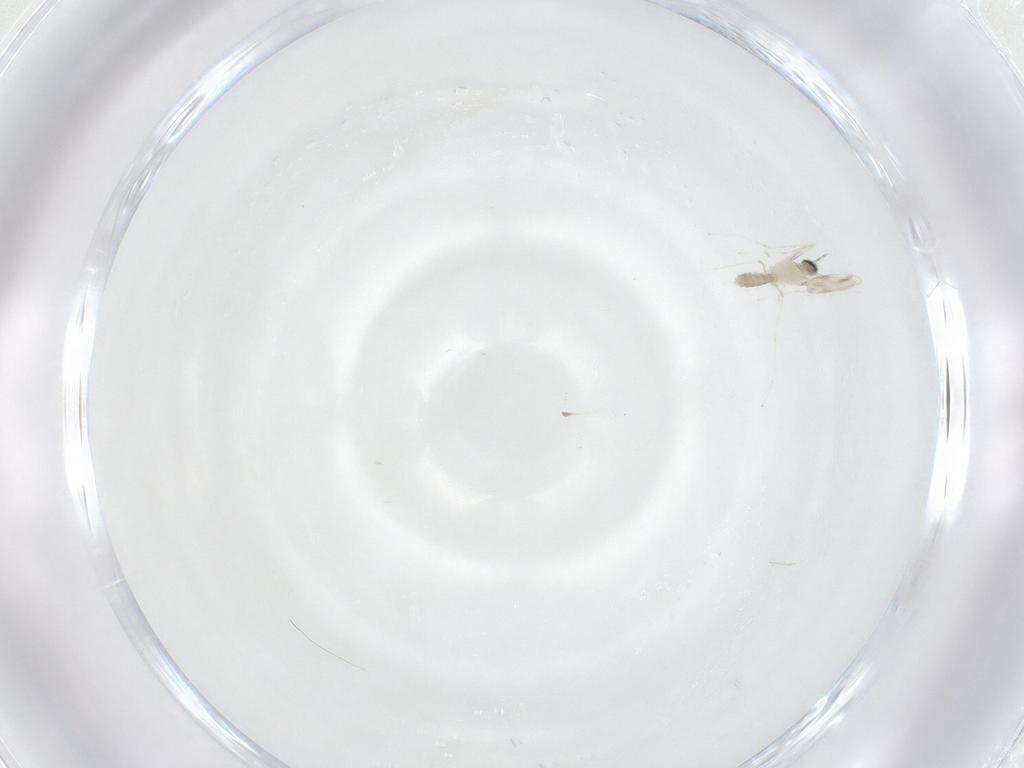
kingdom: Animalia
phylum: Arthropoda
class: Insecta
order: Diptera
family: Cecidomyiidae
